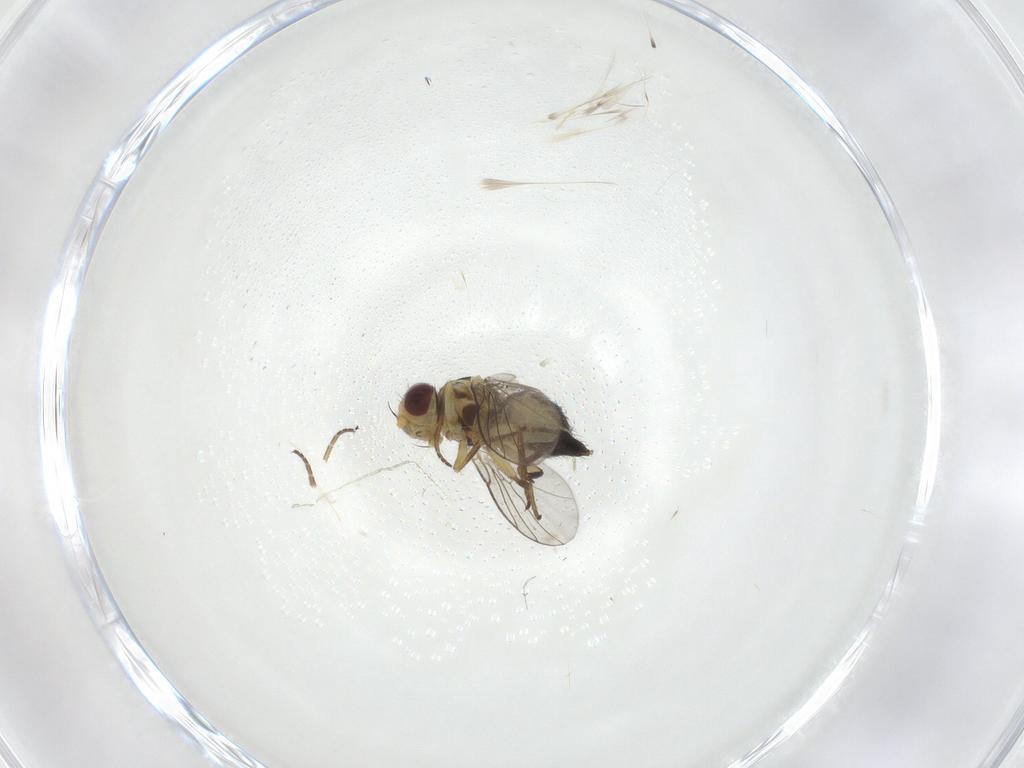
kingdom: Animalia
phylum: Arthropoda
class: Insecta
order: Diptera
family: Agromyzidae
